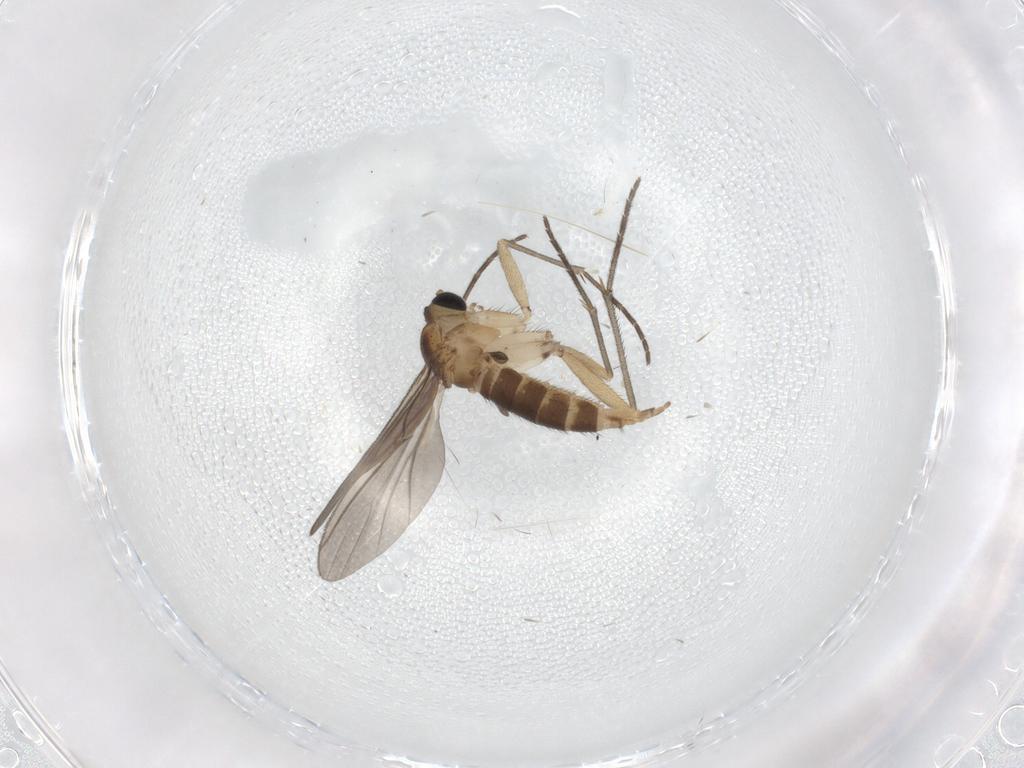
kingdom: Animalia
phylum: Arthropoda
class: Insecta
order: Diptera
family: Sciaridae
